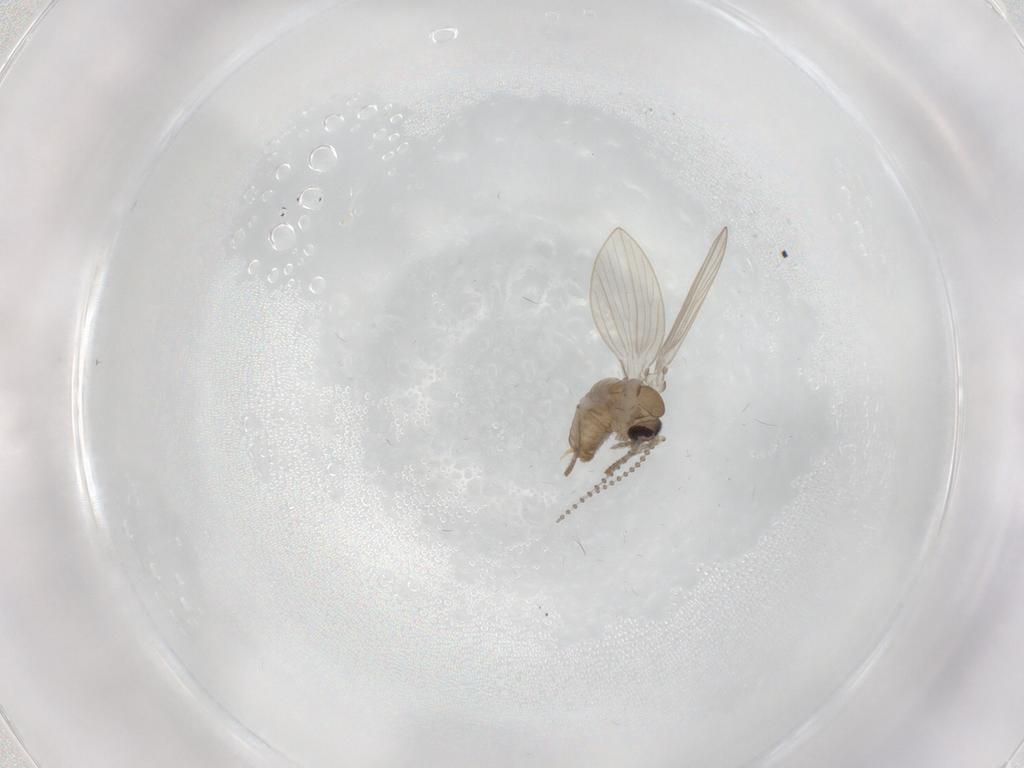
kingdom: Animalia
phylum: Arthropoda
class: Insecta
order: Diptera
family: Psychodidae
